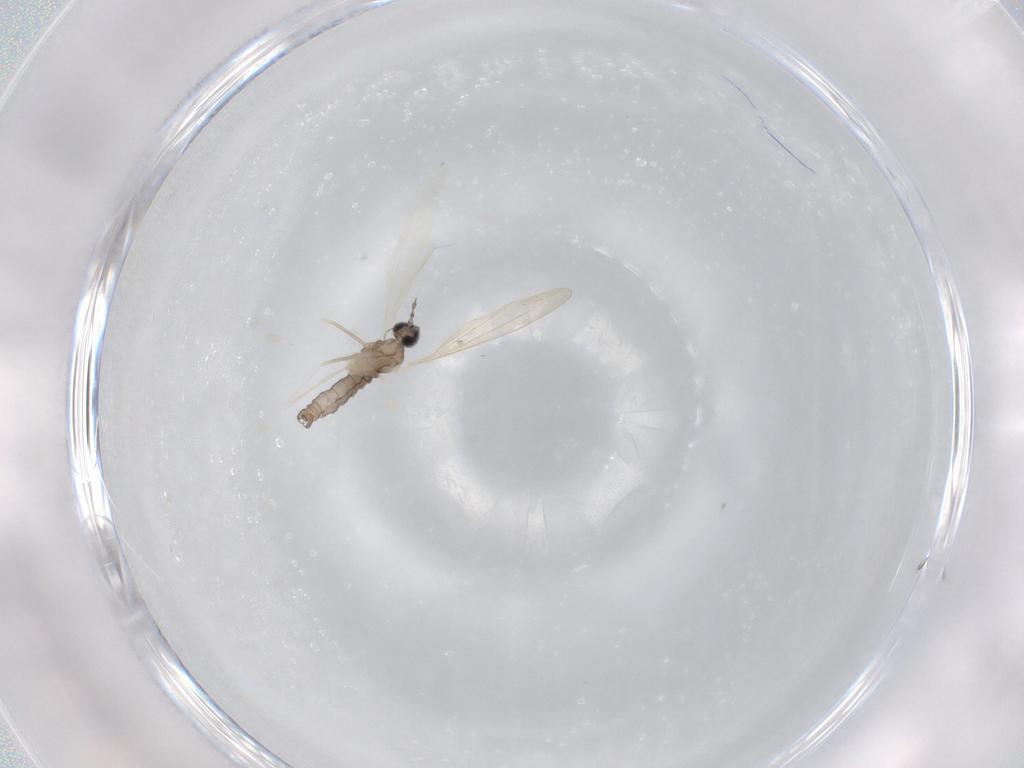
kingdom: Animalia
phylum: Arthropoda
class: Insecta
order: Diptera
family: Cecidomyiidae
